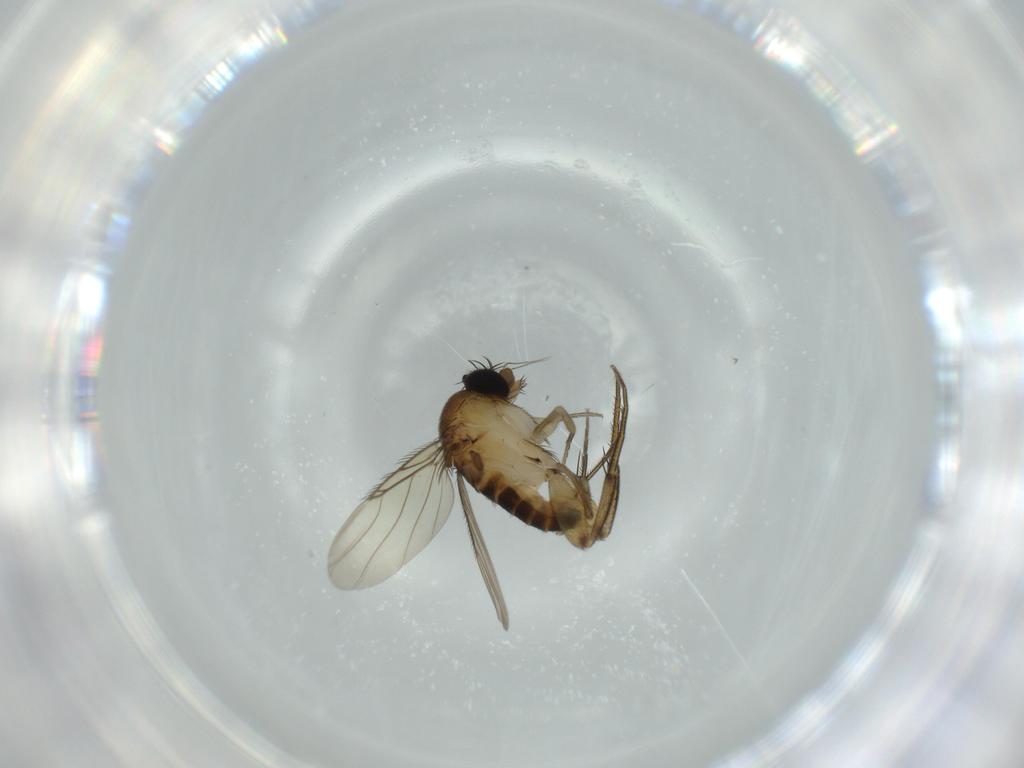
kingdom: Animalia
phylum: Arthropoda
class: Insecta
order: Diptera
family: Phoridae
